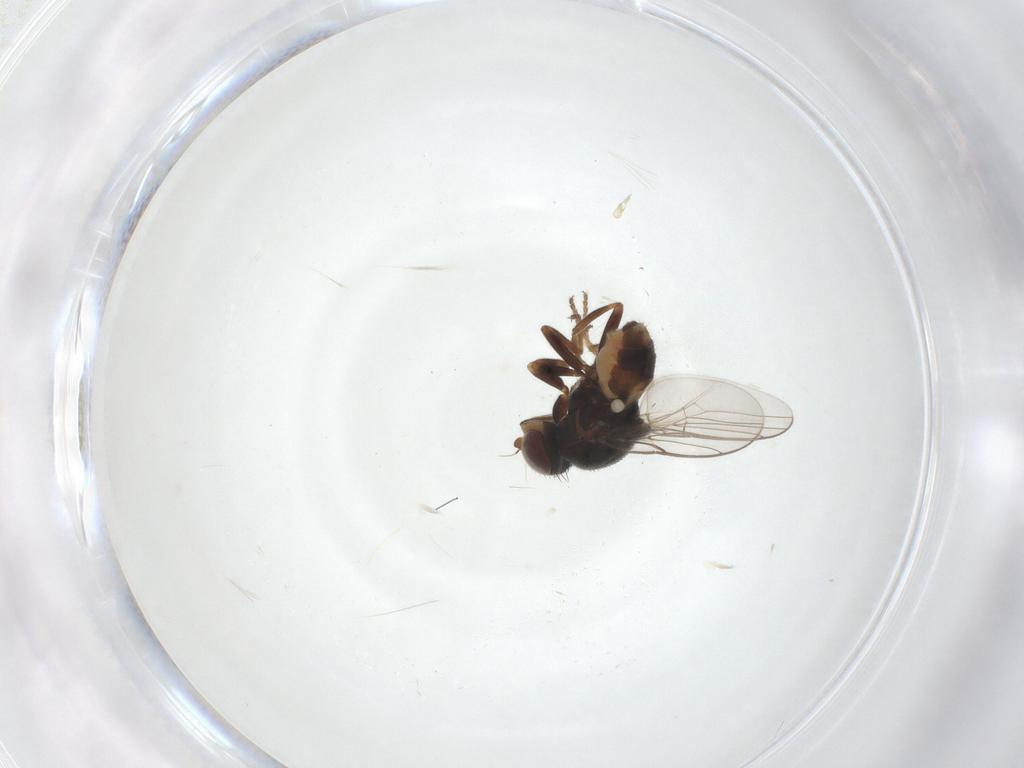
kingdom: Animalia
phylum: Arthropoda
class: Insecta
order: Diptera
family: Chloropidae
